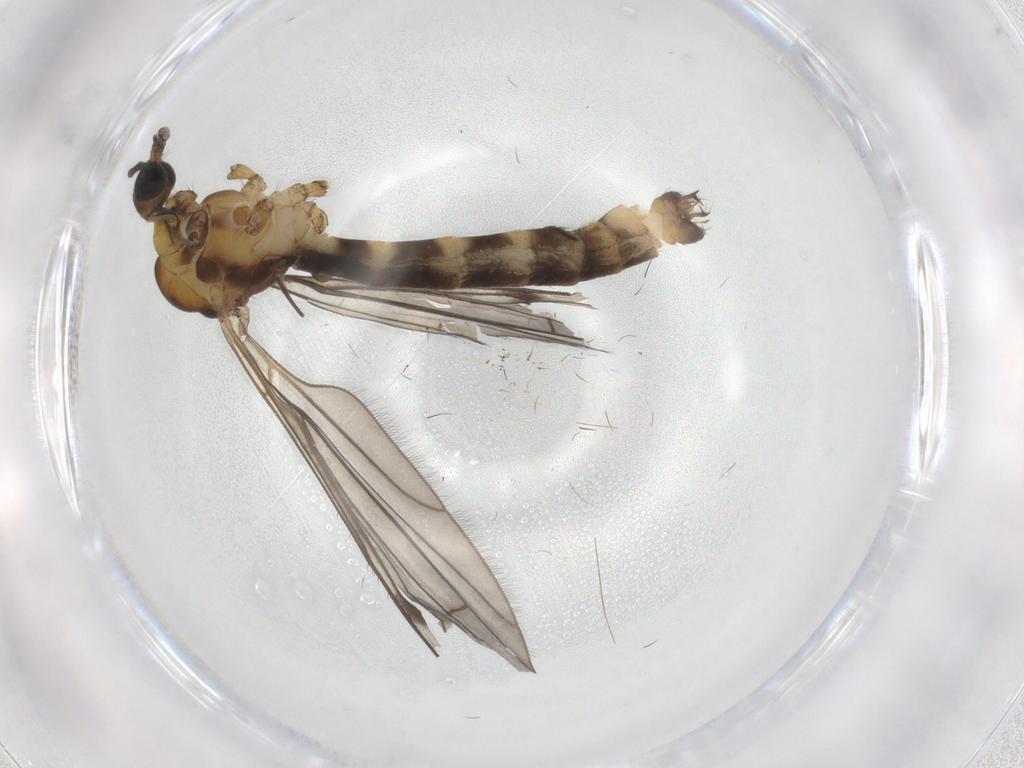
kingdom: Animalia
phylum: Arthropoda
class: Insecta
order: Diptera
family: Limoniidae
